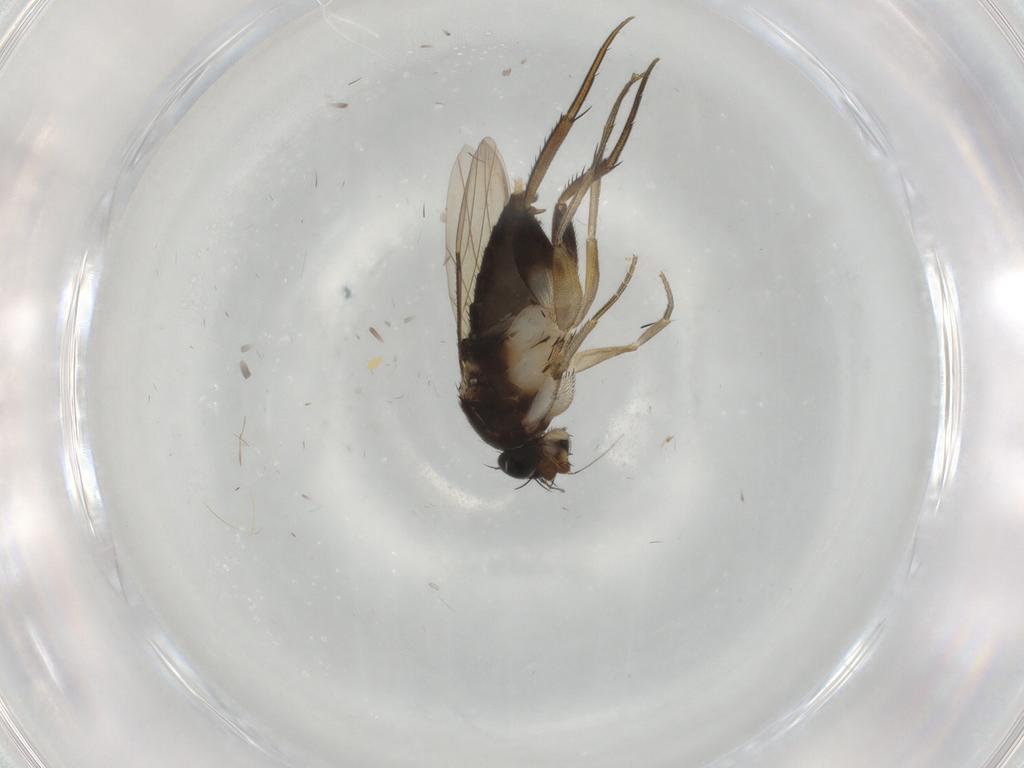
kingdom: Animalia
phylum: Arthropoda
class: Insecta
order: Diptera
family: Phoridae
